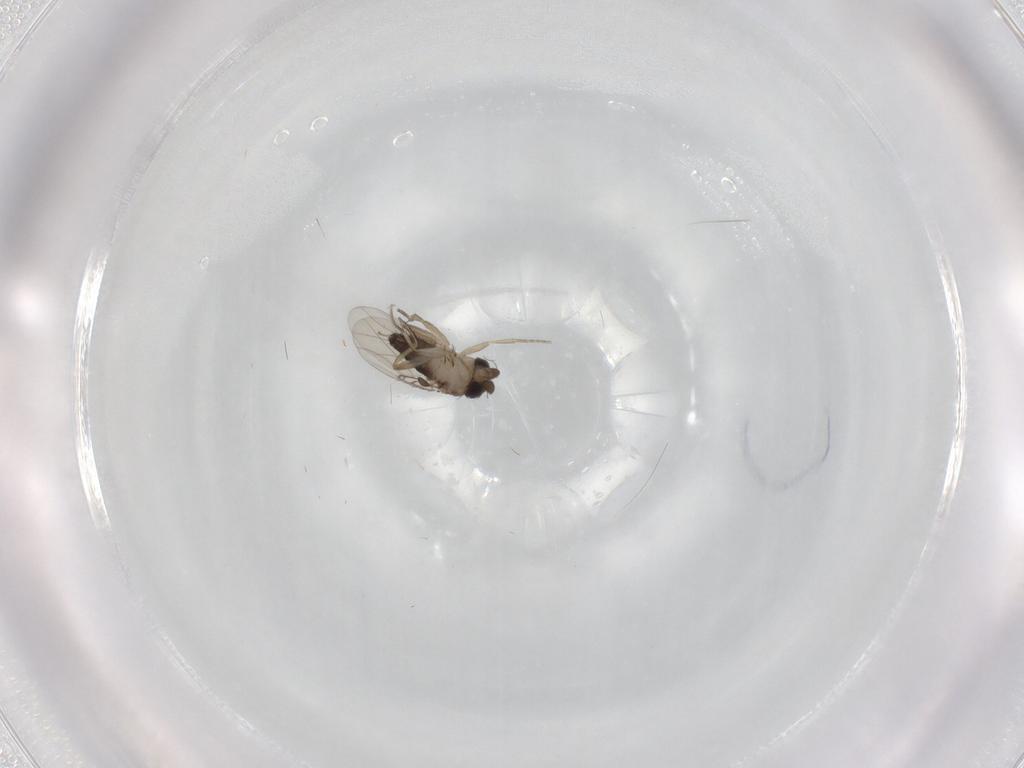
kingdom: Animalia
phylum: Arthropoda
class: Insecta
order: Diptera
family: Phoridae
